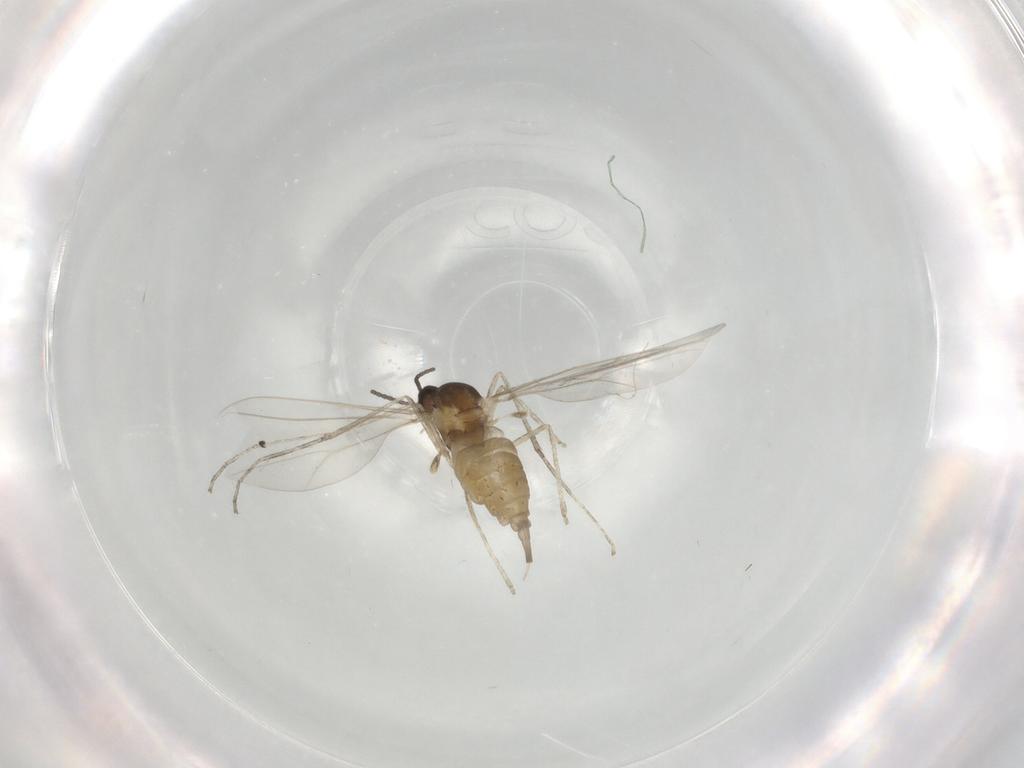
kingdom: Animalia
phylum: Arthropoda
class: Insecta
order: Diptera
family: Cecidomyiidae
